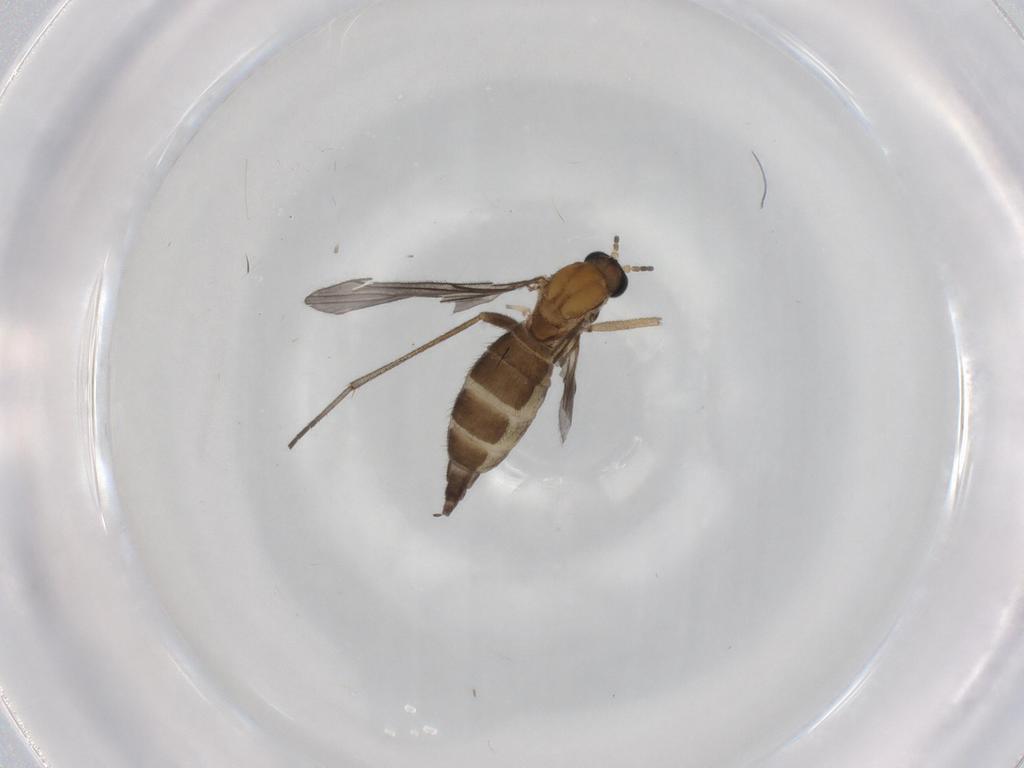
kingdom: Animalia
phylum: Arthropoda
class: Insecta
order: Diptera
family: Sciaridae
